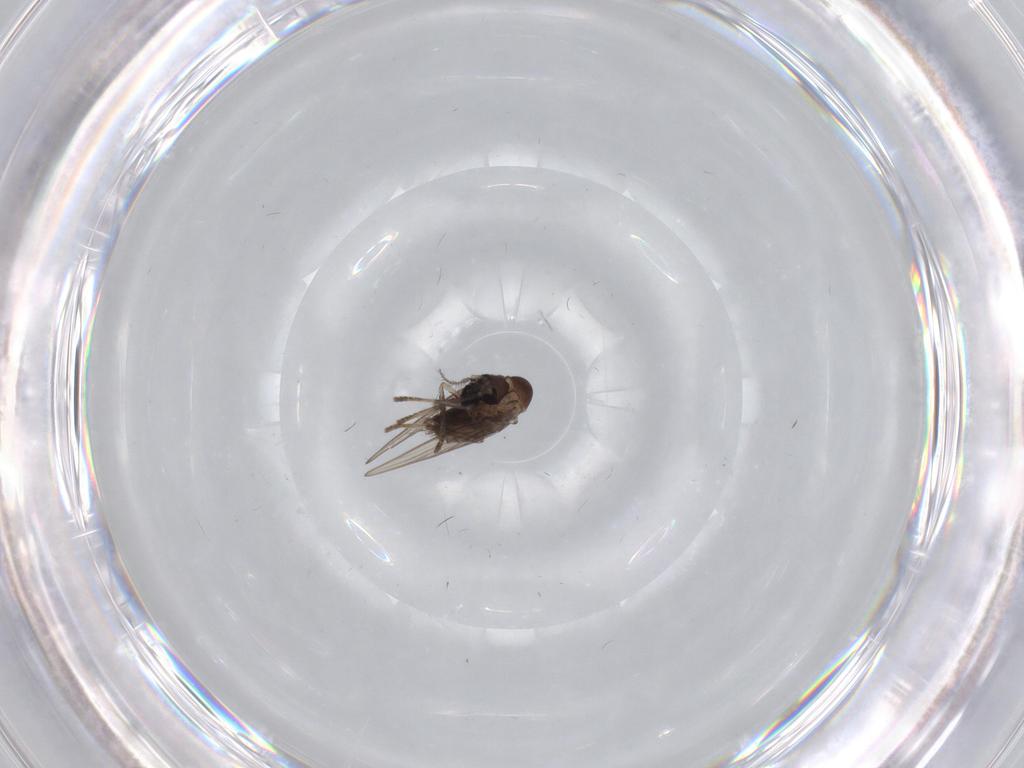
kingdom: Animalia
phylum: Arthropoda
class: Insecta
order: Diptera
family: Psychodidae
